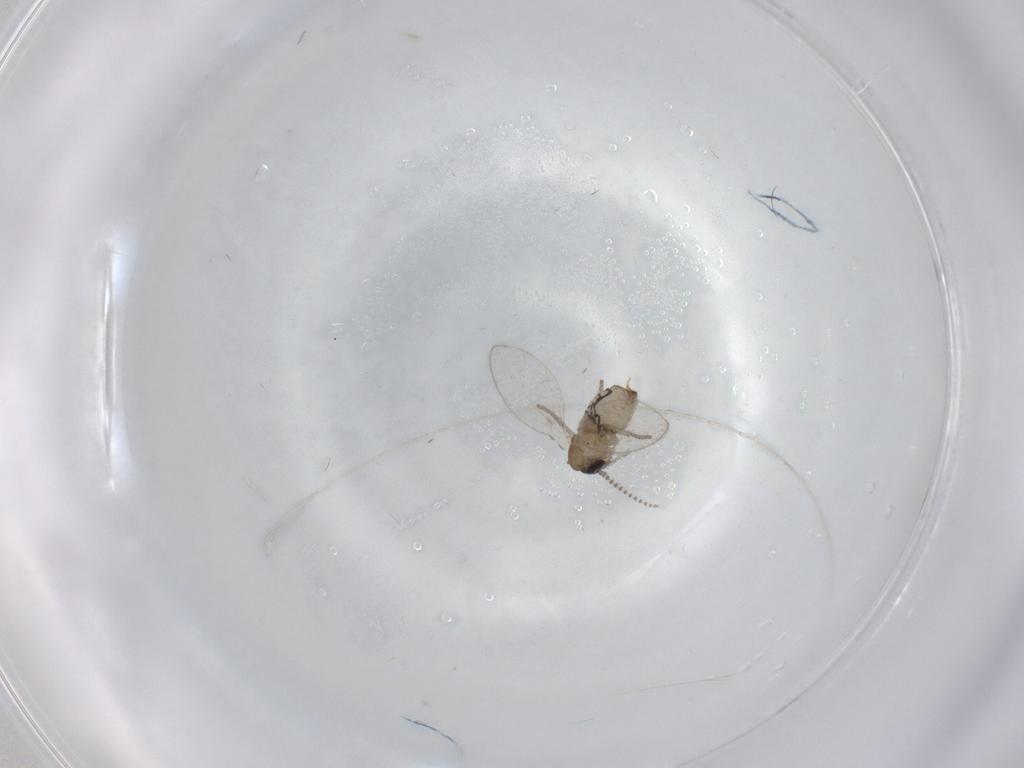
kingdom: Animalia
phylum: Arthropoda
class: Insecta
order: Diptera
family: Psychodidae
